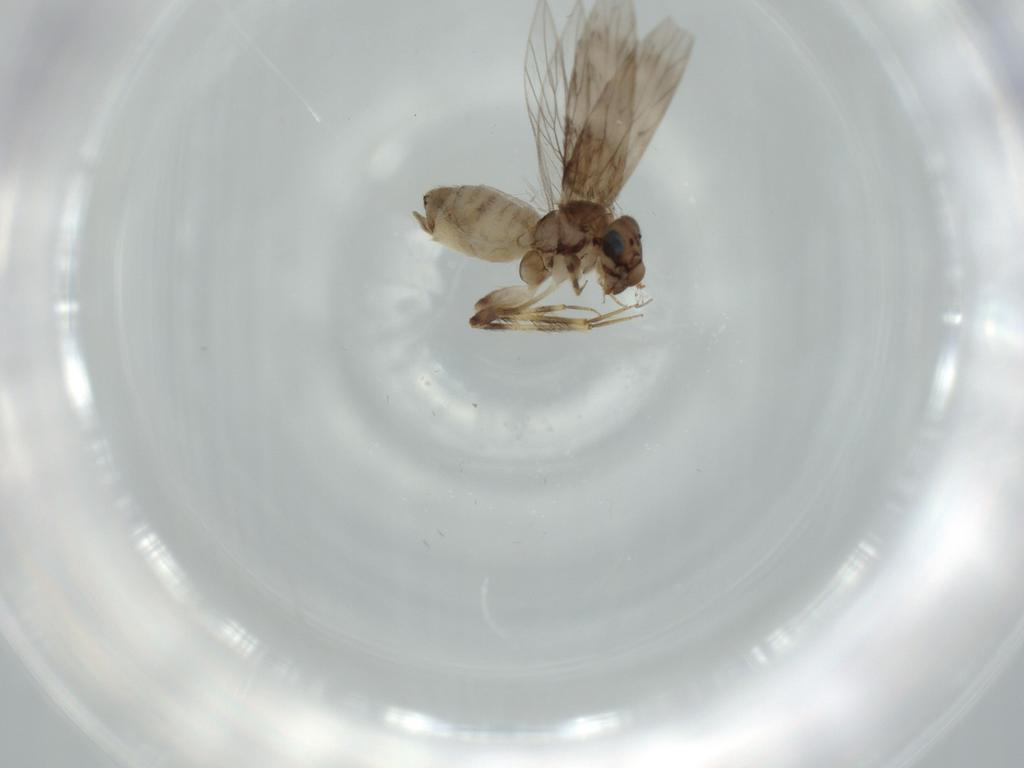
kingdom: Animalia
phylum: Arthropoda
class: Insecta
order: Psocodea
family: Lepidopsocidae
